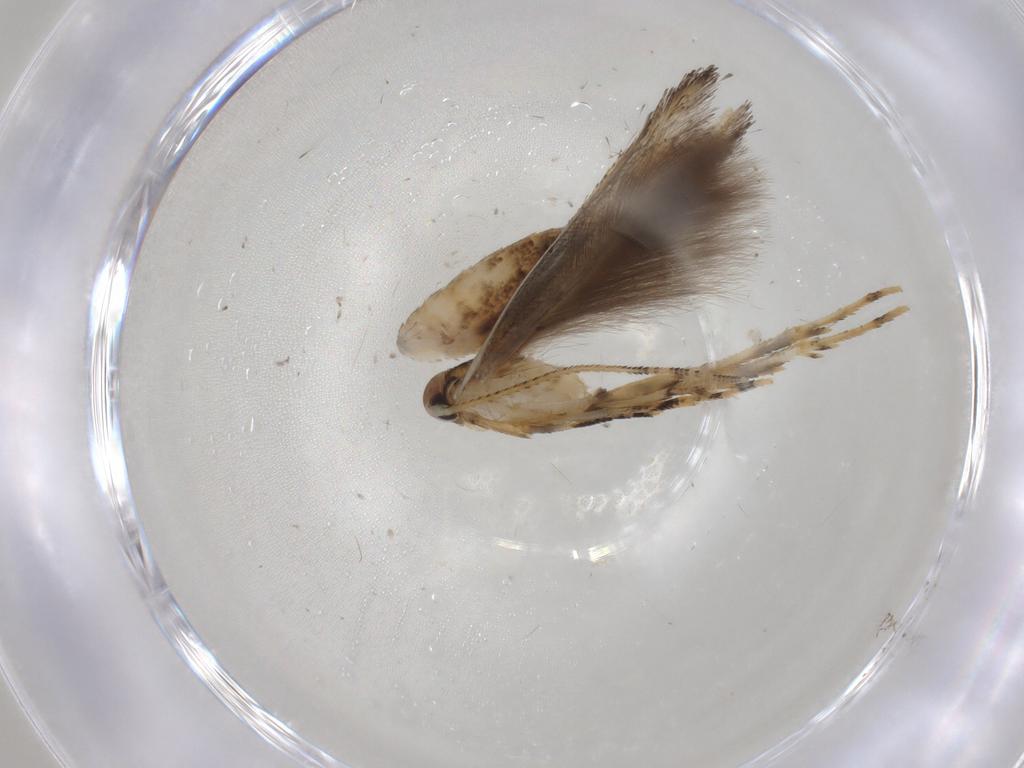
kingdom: Animalia
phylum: Arthropoda
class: Insecta
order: Lepidoptera
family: Cosmopterigidae
